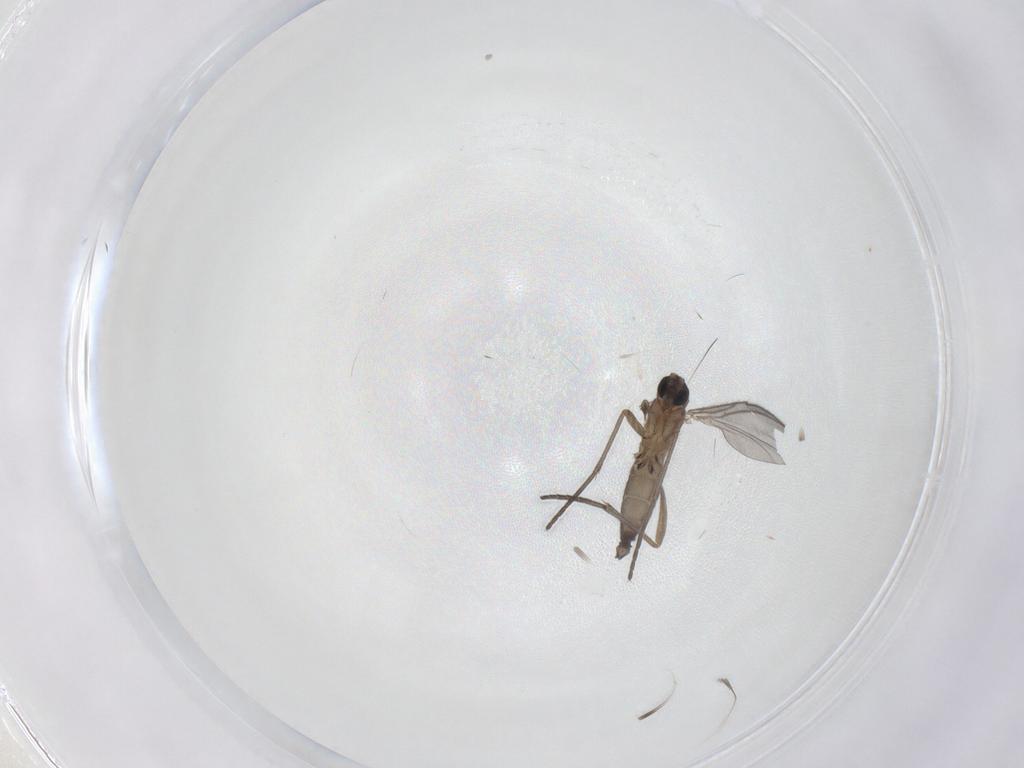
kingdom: Animalia
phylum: Arthropoda
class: Insecta
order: Diptera
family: Sciaridae
